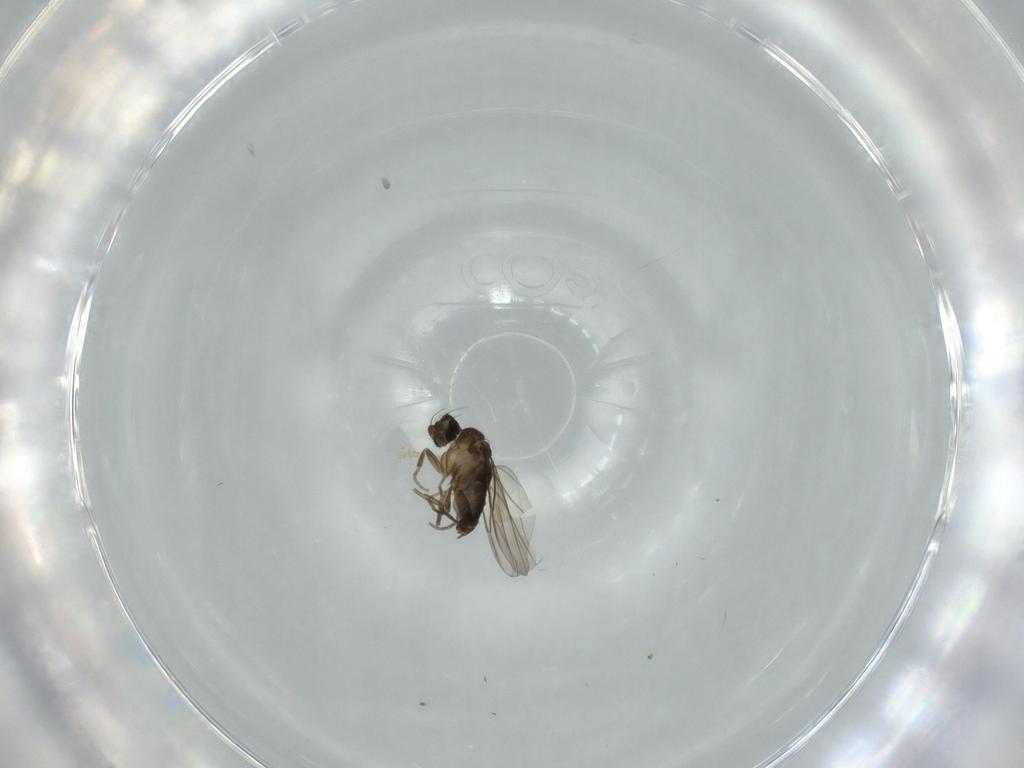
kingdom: Animalia
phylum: Arthropoda
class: Insecta
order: Diptera
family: Phoridae
